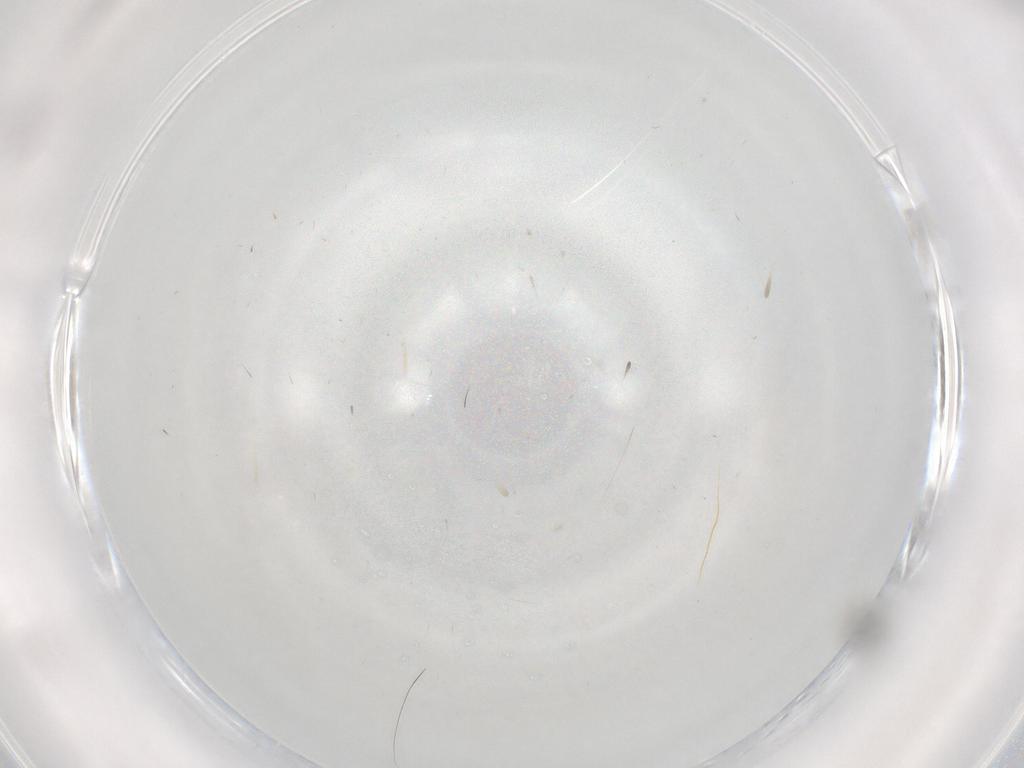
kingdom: Animalia
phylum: Arthropoda
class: Insecta
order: Diptera
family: Cecidomyiidae
